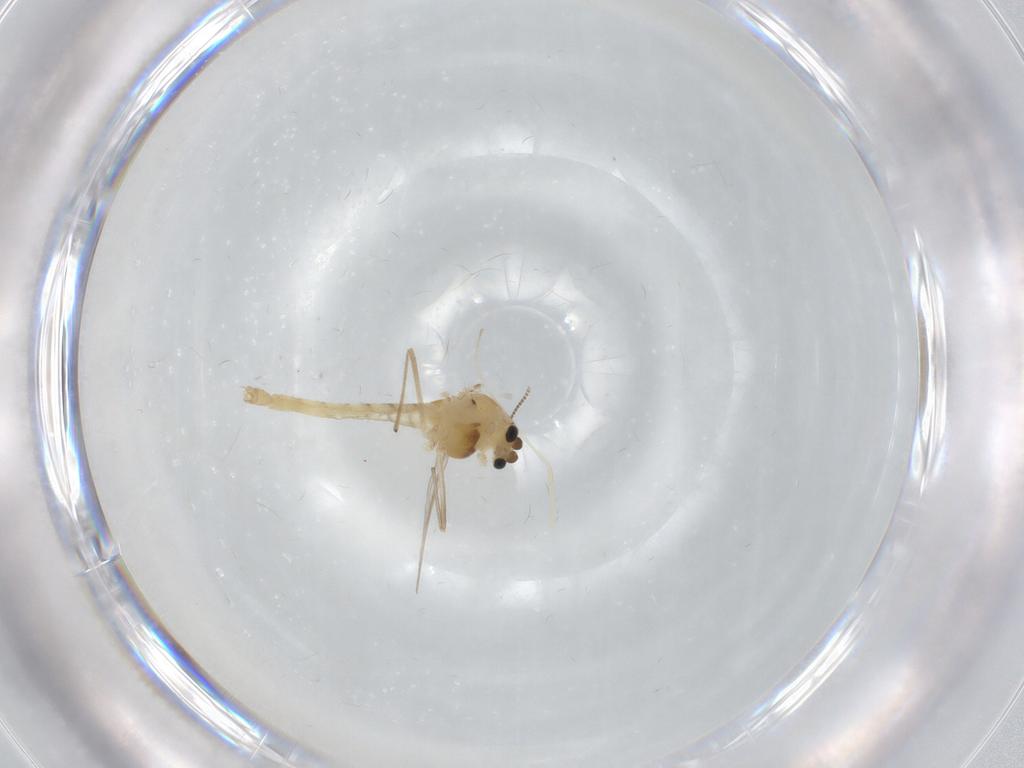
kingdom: Animalia
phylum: Arthropoda
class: Insecta
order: Diptera
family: Chironomidae
